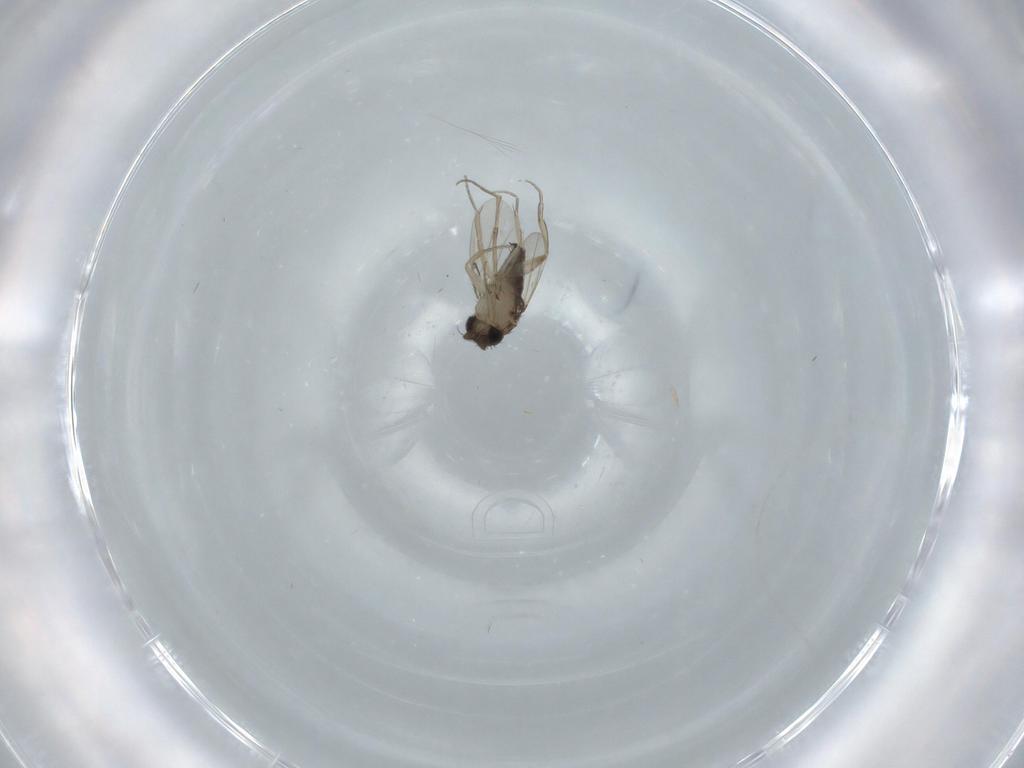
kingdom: Animalia
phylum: Arthropoda
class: Insecta
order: Diptera
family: Phoridae
